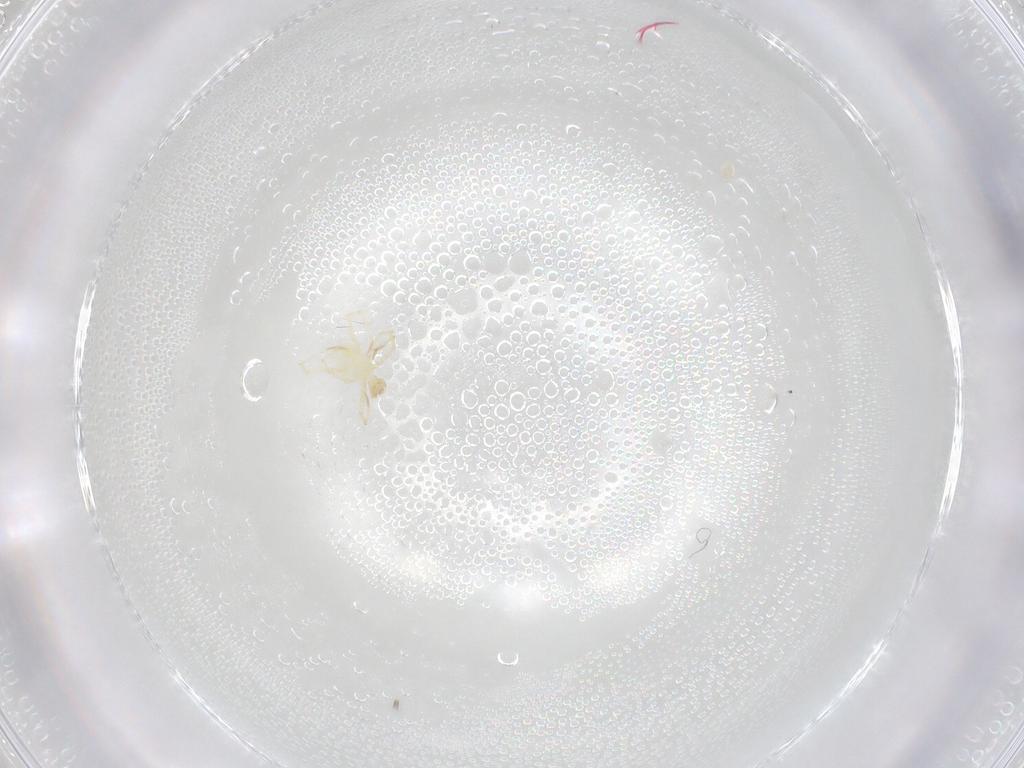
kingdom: Animalia
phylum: Arthropoda
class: Arachnida
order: Trombidiformes
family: Erythraeidae
